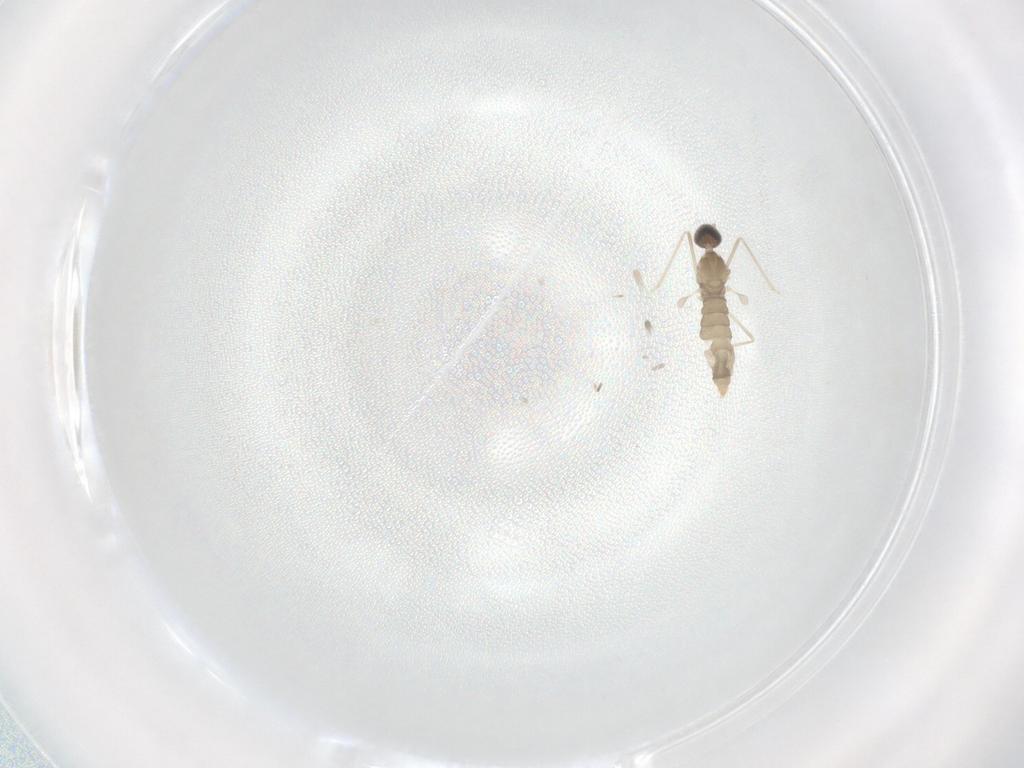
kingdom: Animalia
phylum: Arthropoda
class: Insecta
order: Diptera
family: Cecidomyiidae
